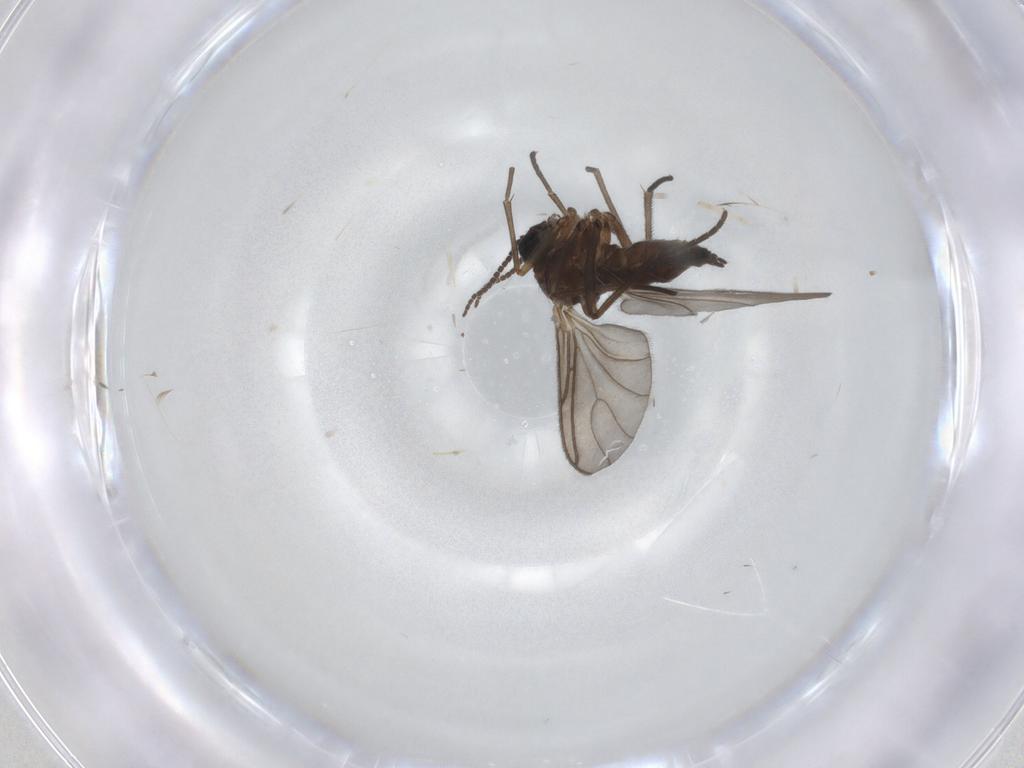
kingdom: Animalia
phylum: Arthropoda
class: Insecta
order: Diptera
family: Sciaridae
